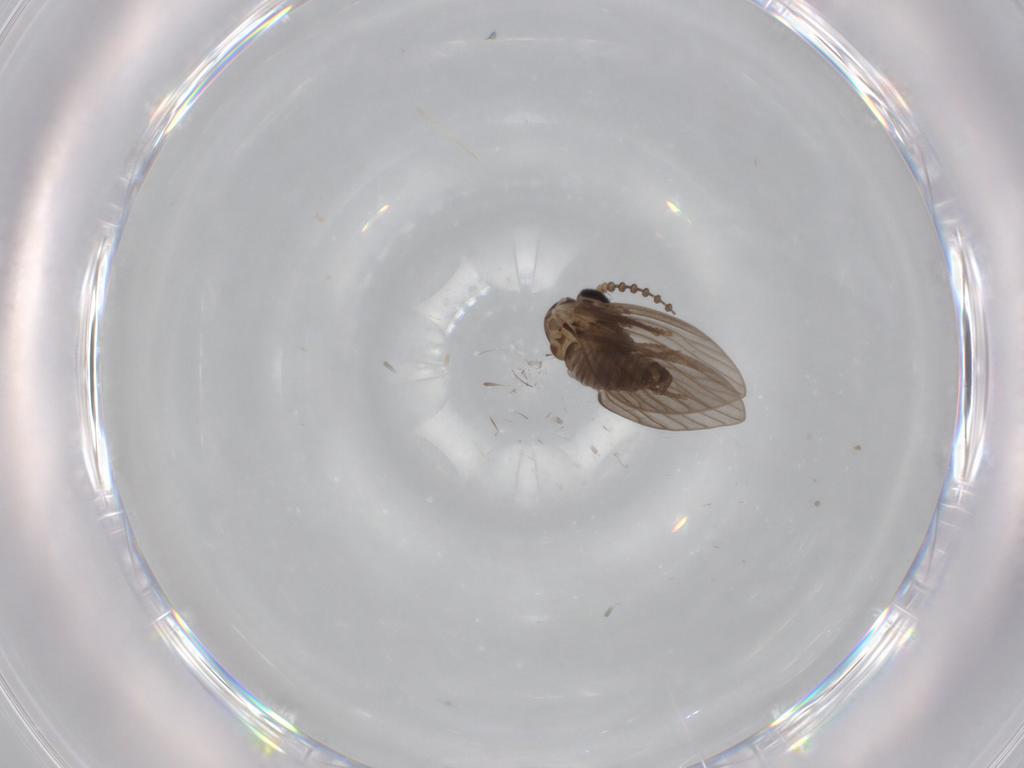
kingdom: Animalia
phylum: Arthropoda
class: Insecta
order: Diptera
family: Psychodidae
